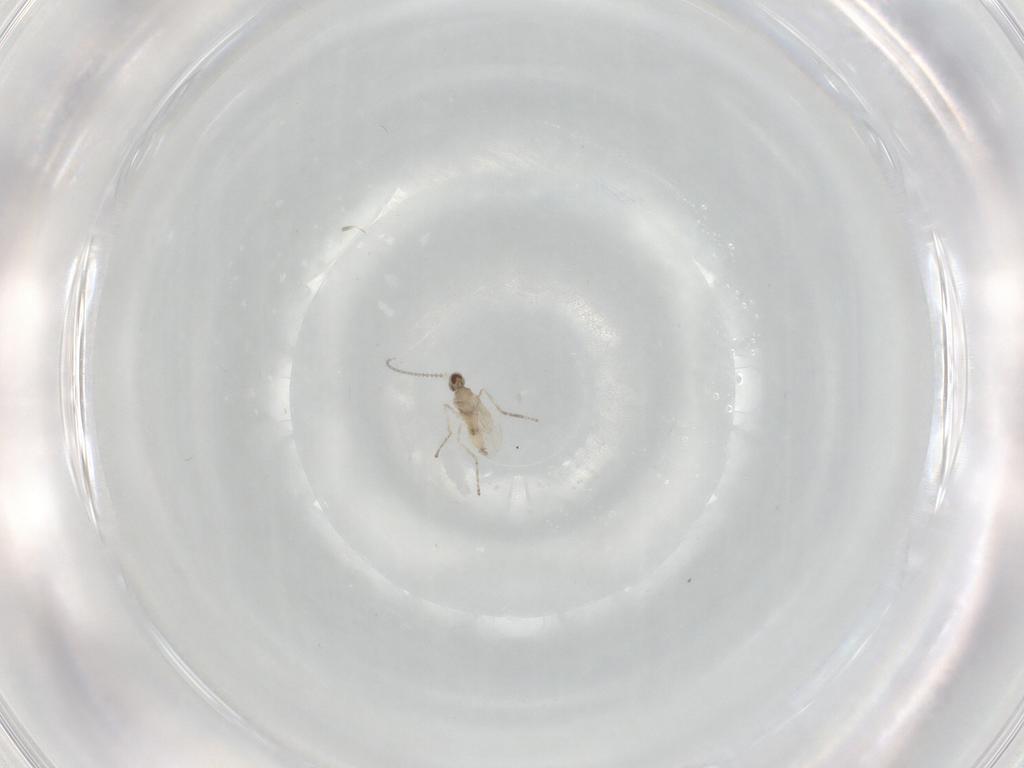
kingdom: Animalia
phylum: Arthropoda
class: Insecta
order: Diptera
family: Cecidomyiidae
